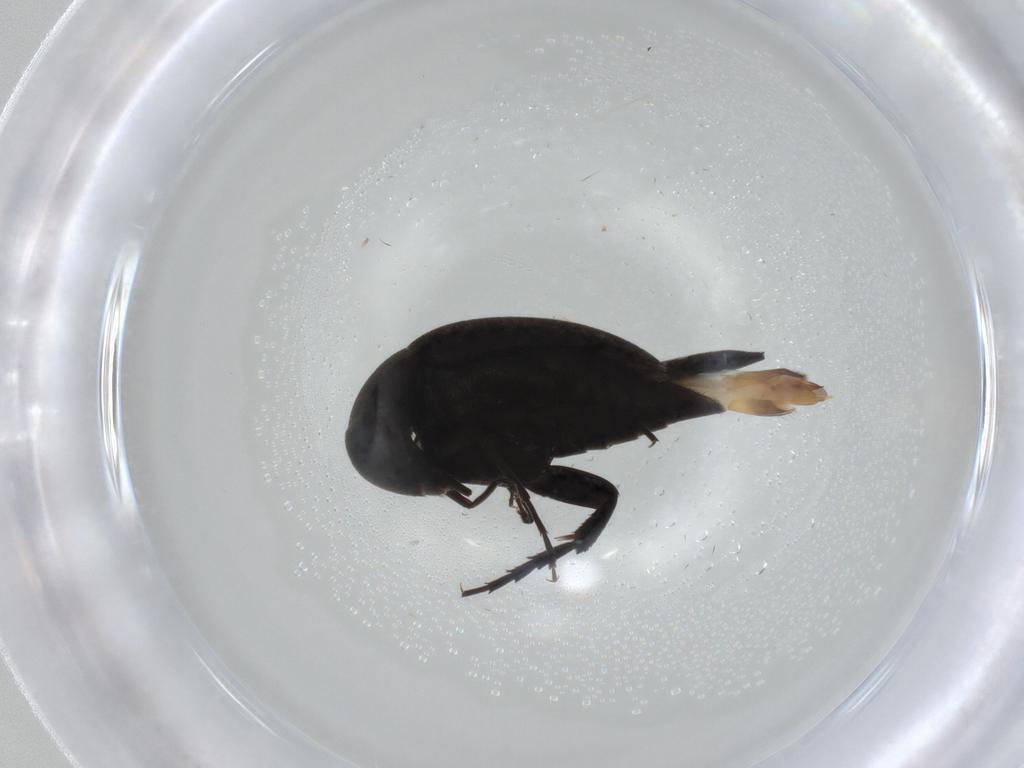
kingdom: Animalia
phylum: Arthropoda
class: Insecta
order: Coleoptera
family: Mordellidae
